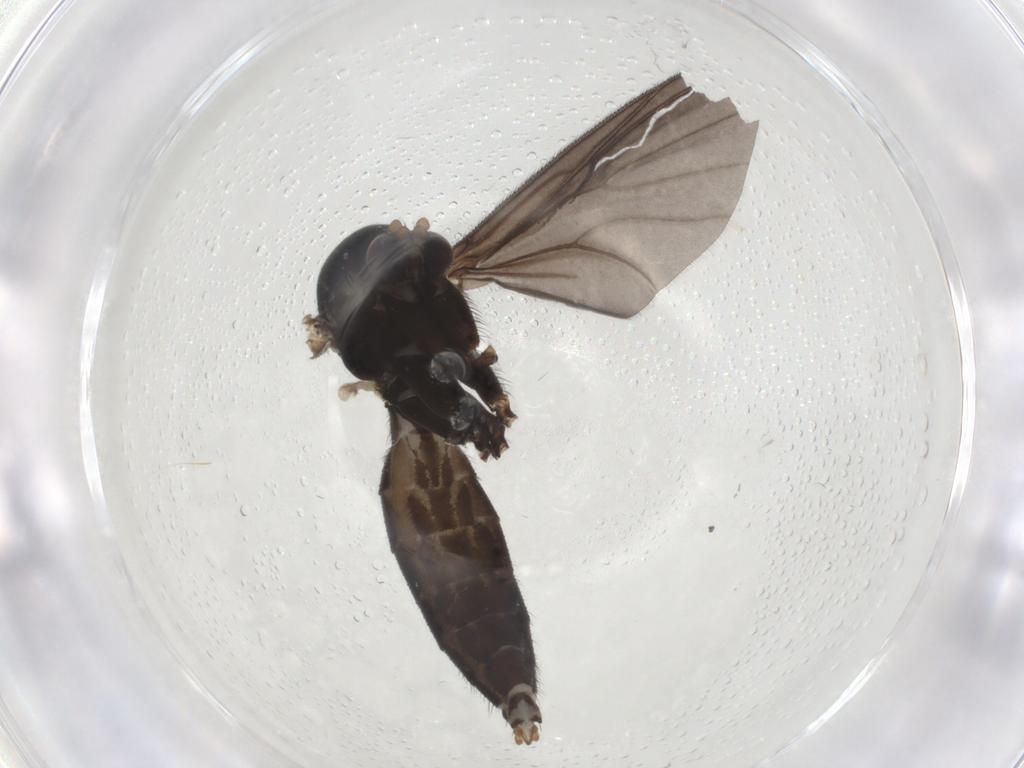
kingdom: Animalia
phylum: Arthropoda
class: Insecta
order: Diptera
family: Mycetophilidae
